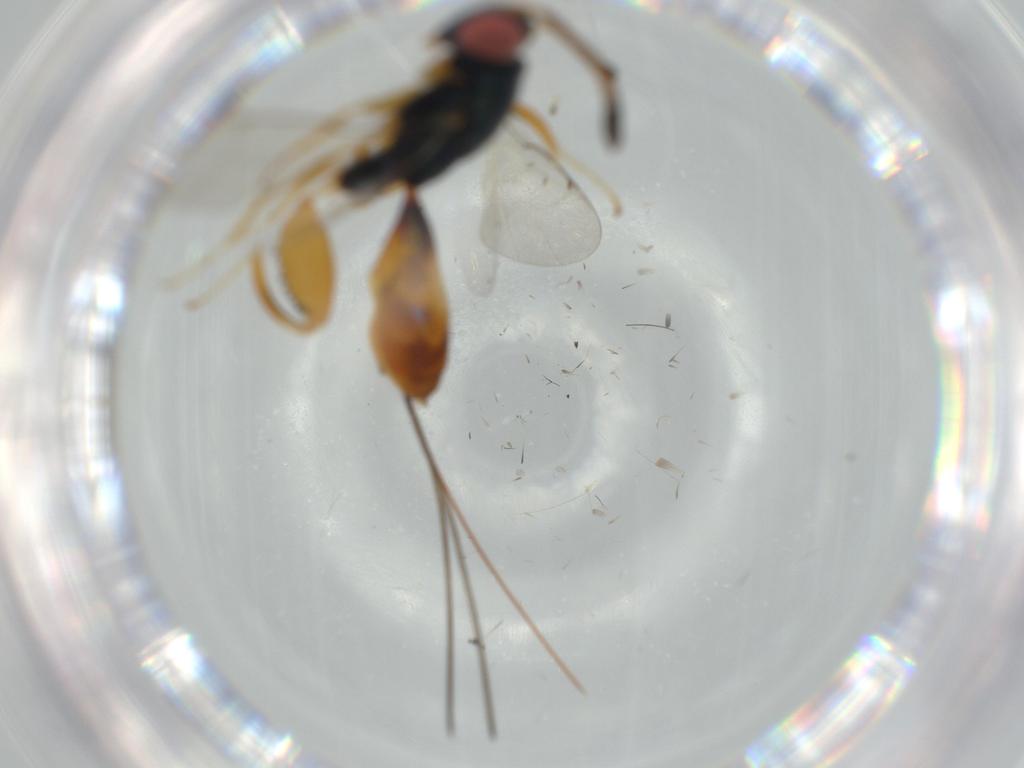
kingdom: Animalia
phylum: Arthropoda
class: Insecta
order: Hymenoptera
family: Diapriidae
